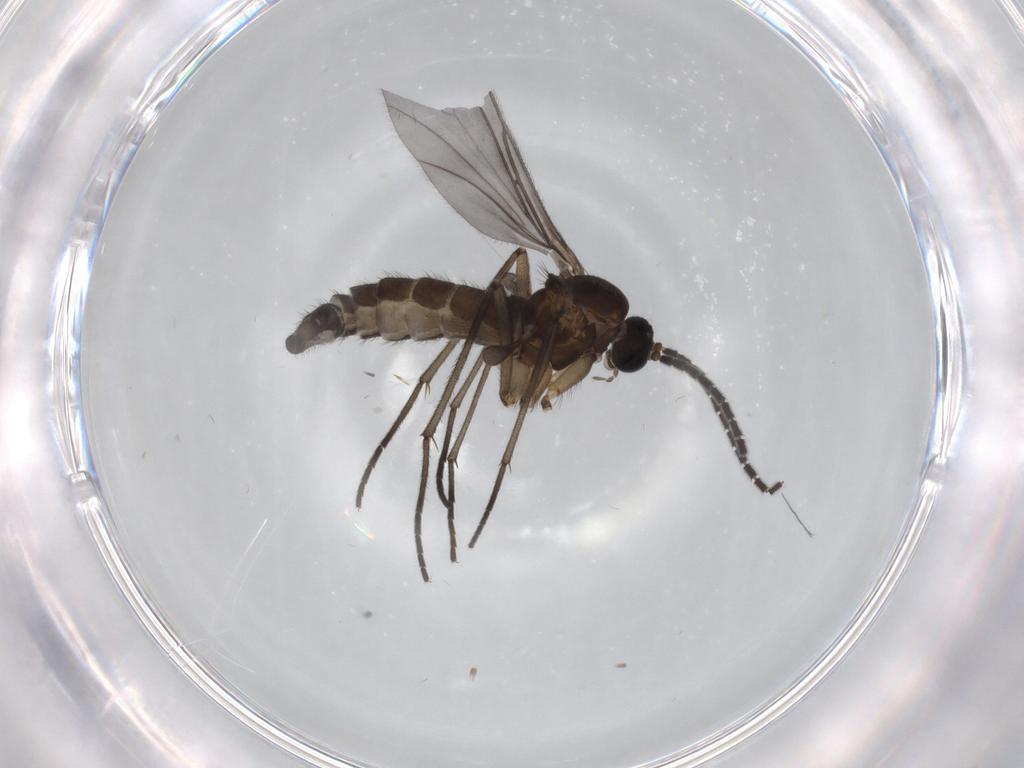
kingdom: Animalia
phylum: Arthropoda
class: Insecta
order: Diptera
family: Sciaridae
